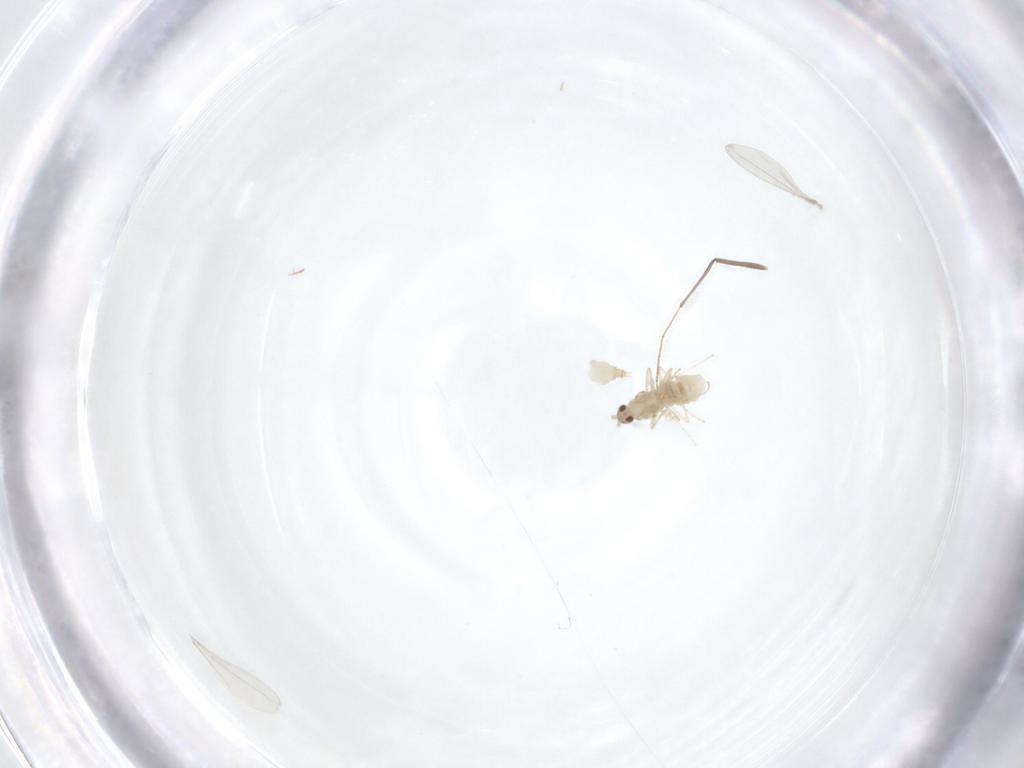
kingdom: Animalia
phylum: Arthropoda
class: Insecta
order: Diptera
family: Cecidomyiidae
